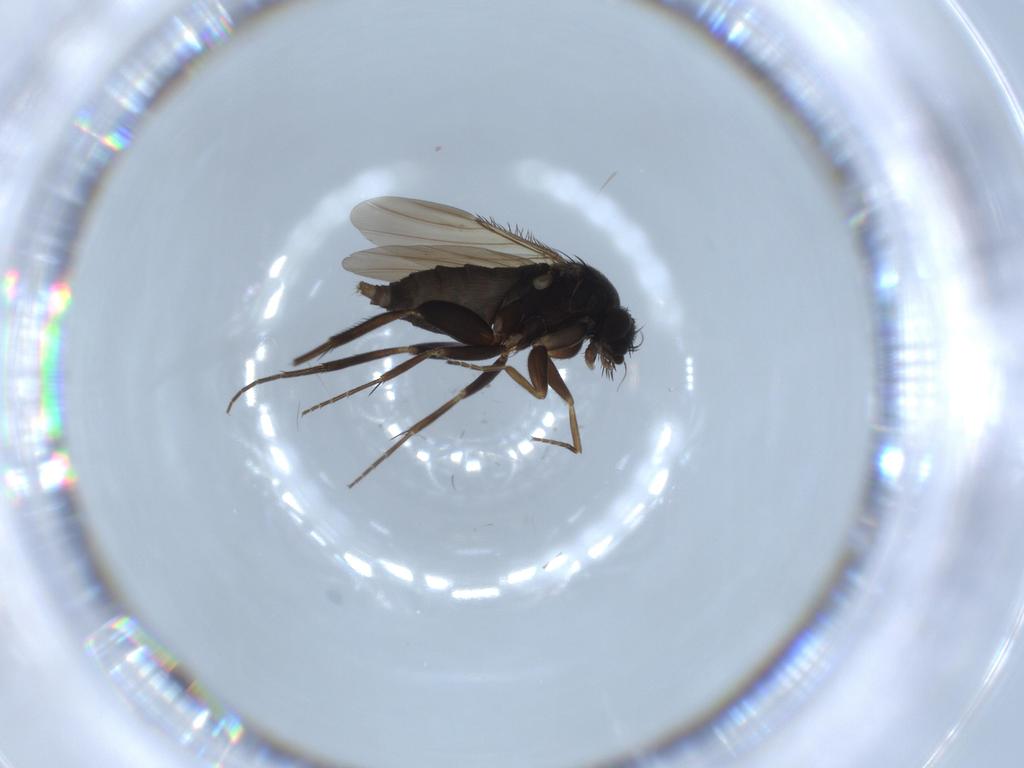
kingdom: Animalia
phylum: Arthropoda
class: Insecta
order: Diptera
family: Phoridae
